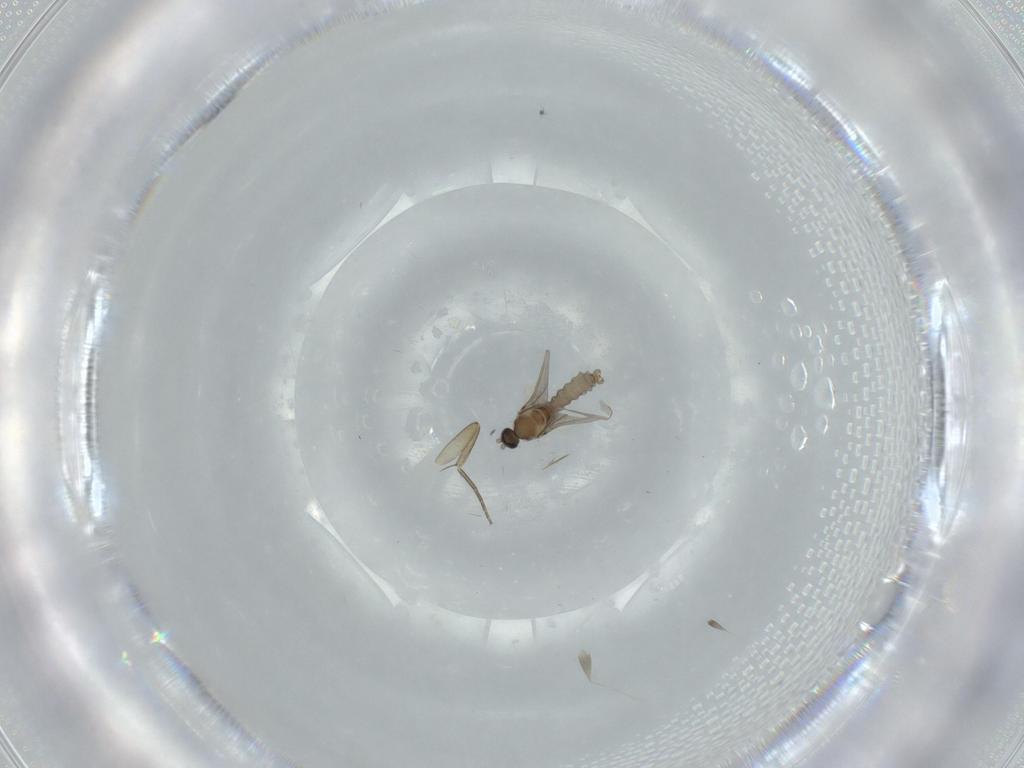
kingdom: Animalia
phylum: Arthropoda
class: Insecta
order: Diptera
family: Phoridae
